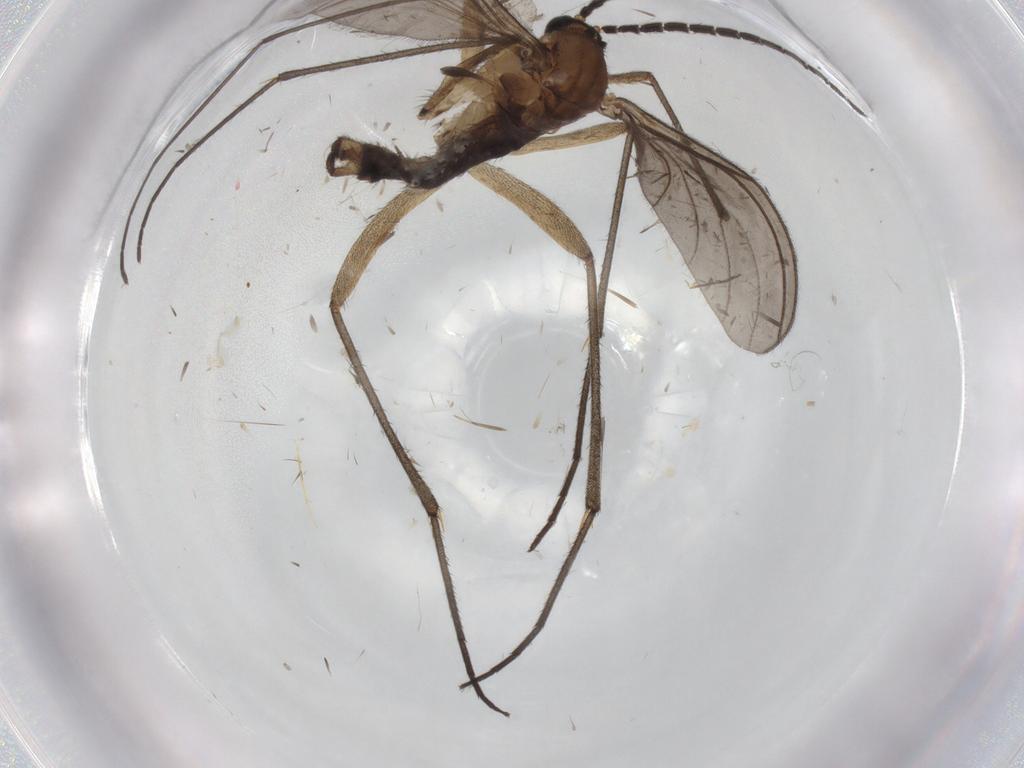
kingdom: Animalia
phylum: Arthropoda
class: Insecta
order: Diptera
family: Sciaridae
